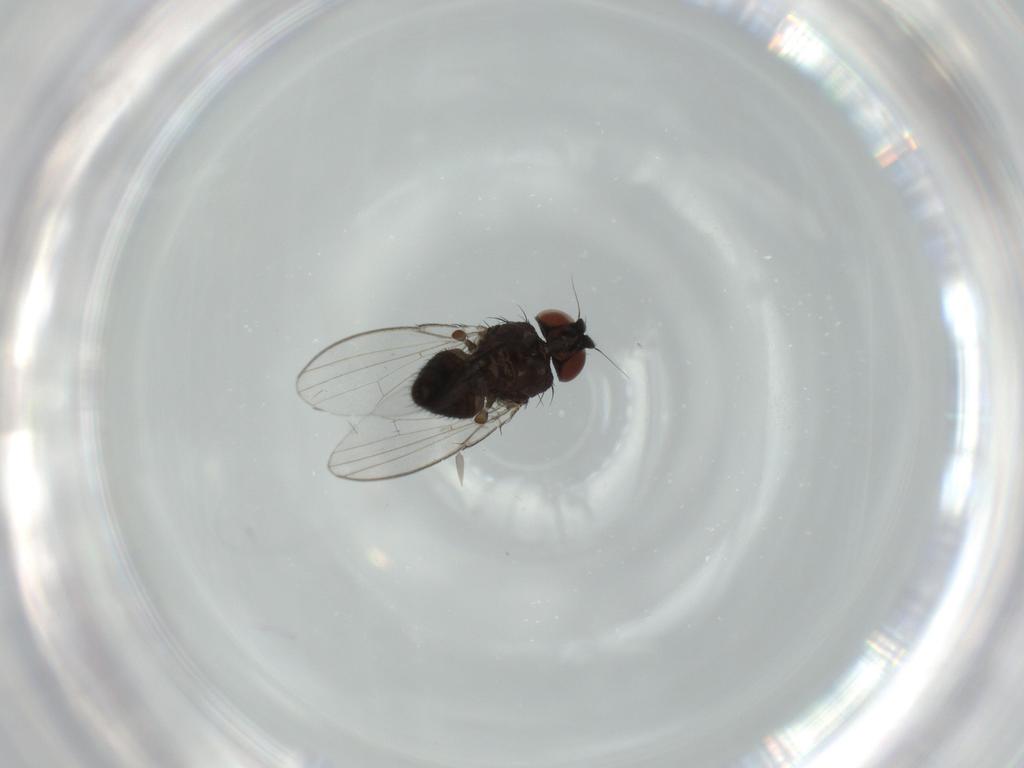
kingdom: Animalia
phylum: Arthropoda
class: Insecta
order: Diptera
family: Milichiidae
